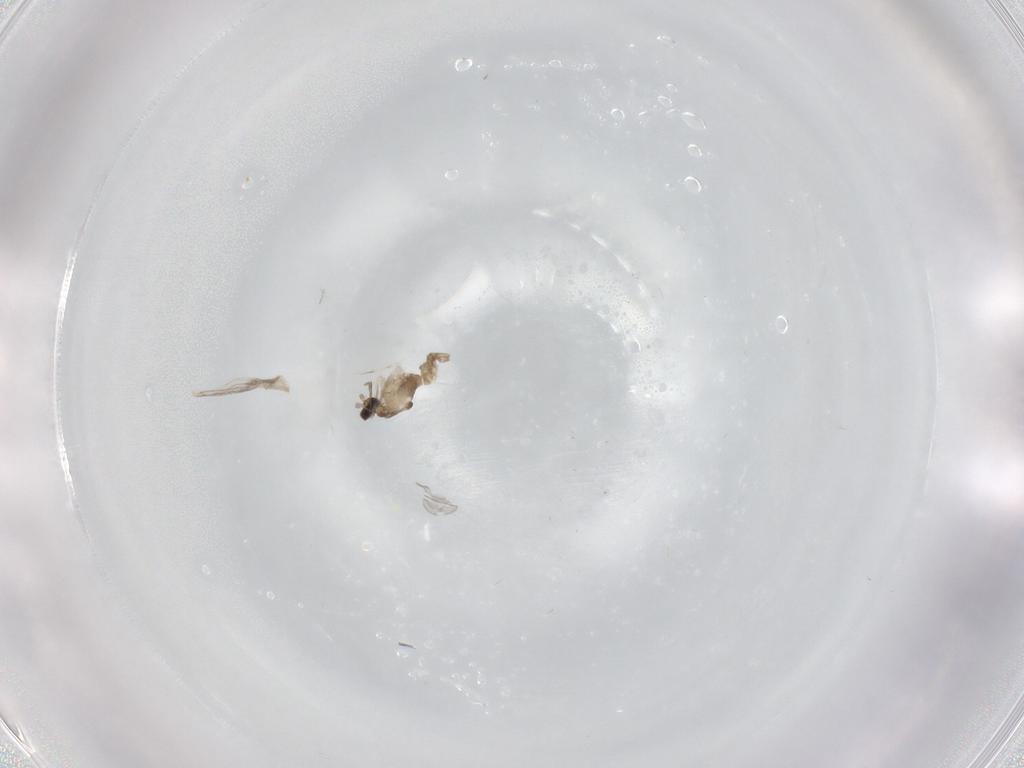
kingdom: Animalia
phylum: Arthropoda
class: Insecta
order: Diptera
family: Cecidomyiidae
